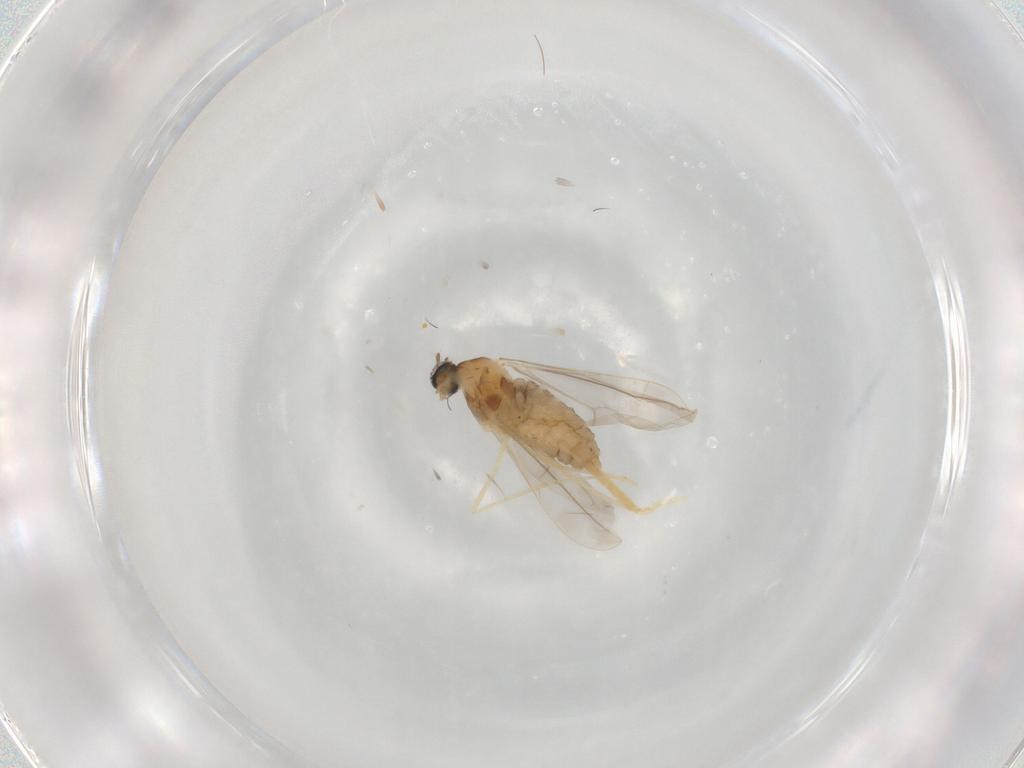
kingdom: Animalia
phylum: Arthropoda
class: Insecta
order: Diptera
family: Cecidomyiidae
